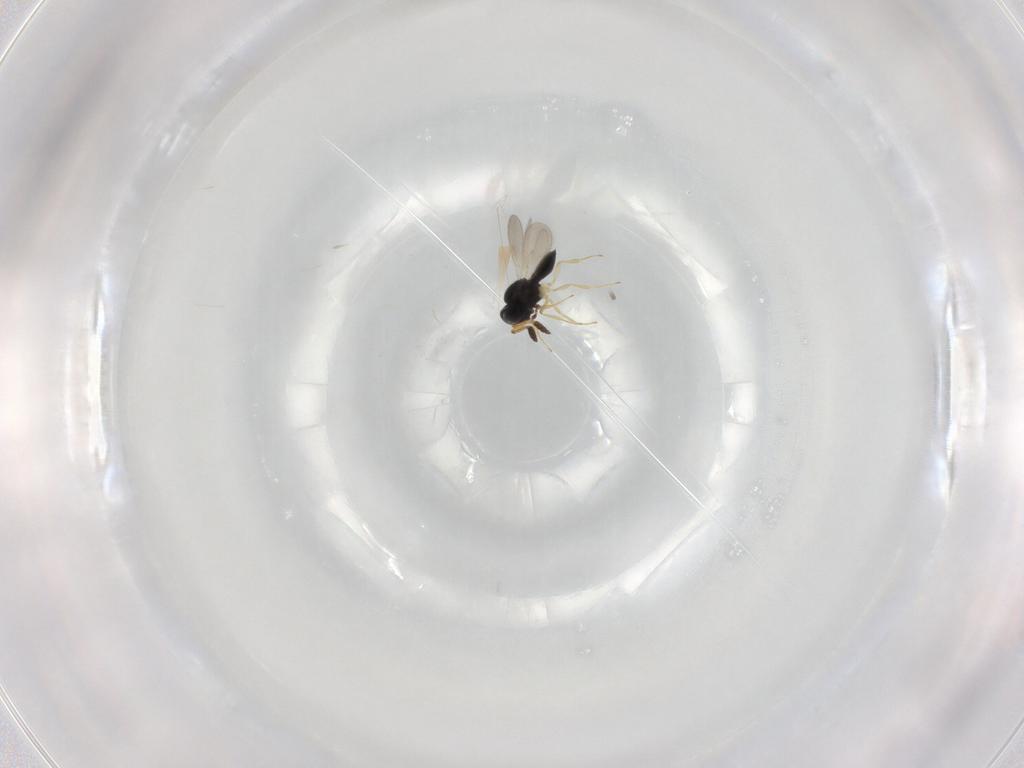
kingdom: Animalia
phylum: Arthropoda
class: Insecta
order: Hymenoptera
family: Scelionidae
